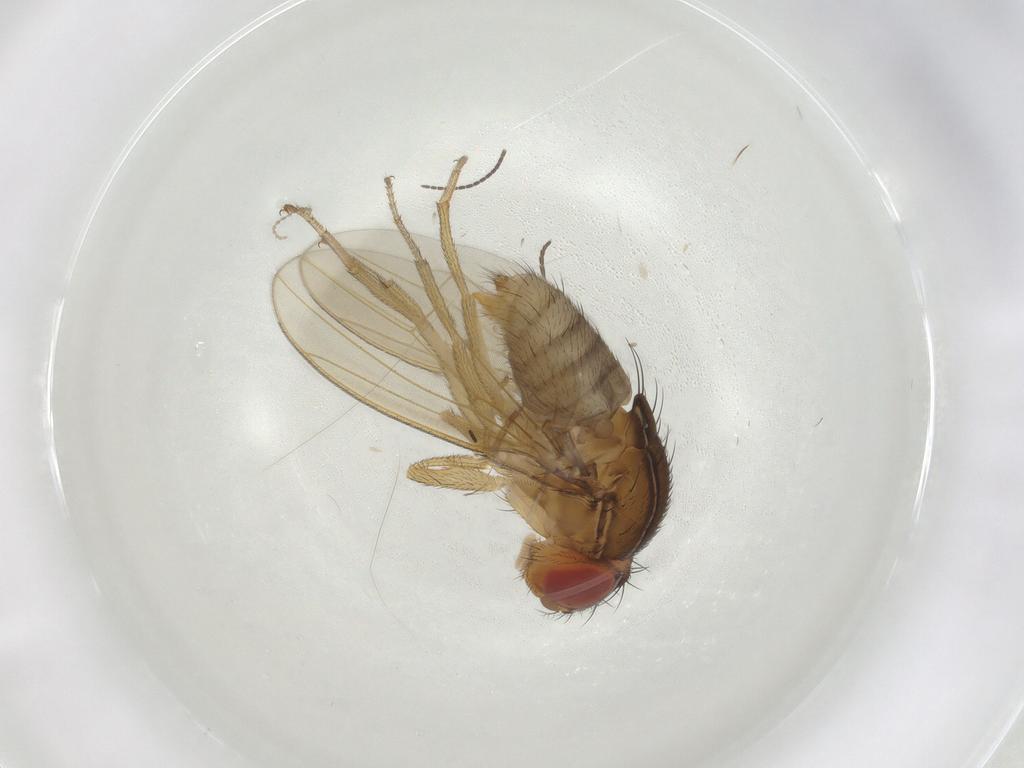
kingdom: Animalia
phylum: Arthropoda
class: Insecta
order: Diptera
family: Drosophilidae
